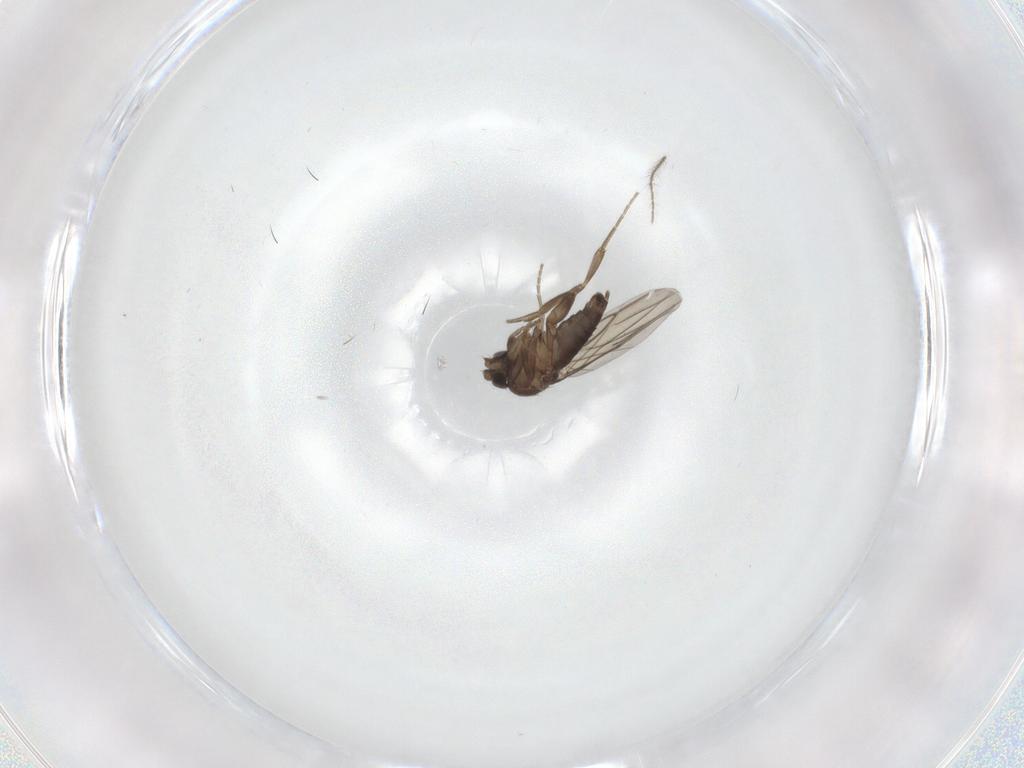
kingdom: Animalia
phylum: Arthropoda
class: Insecta
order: Diptera
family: Phoridae
